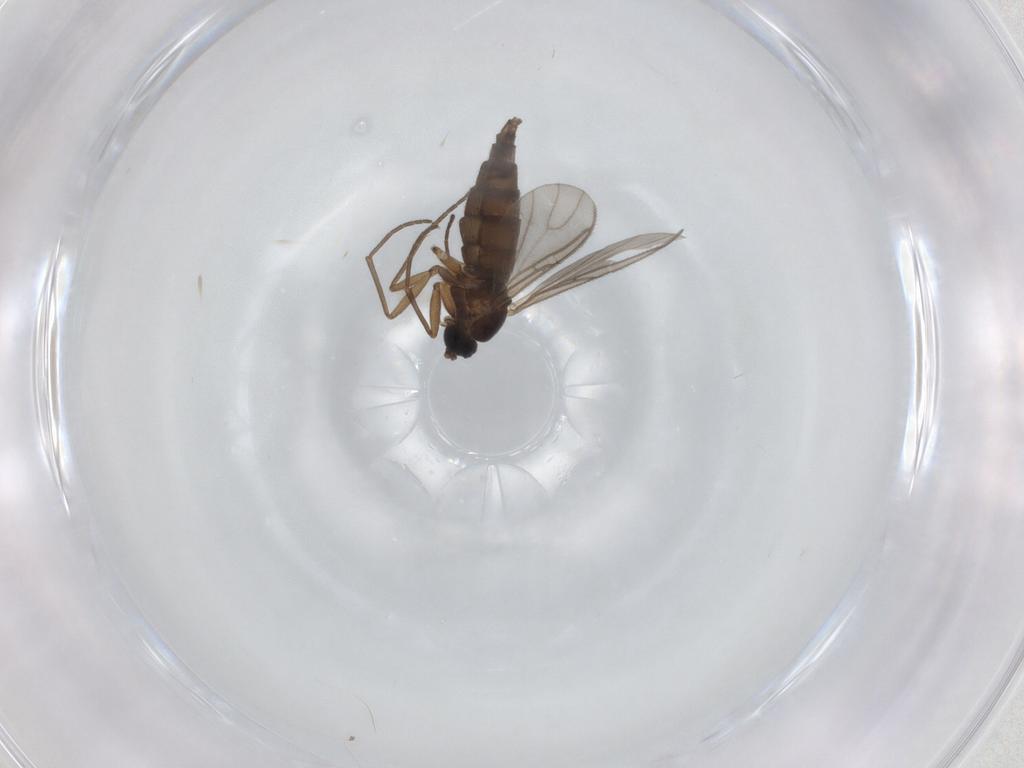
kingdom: Animalia
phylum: Arthropoda
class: Insecta
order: Diptera
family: Sciaridae
